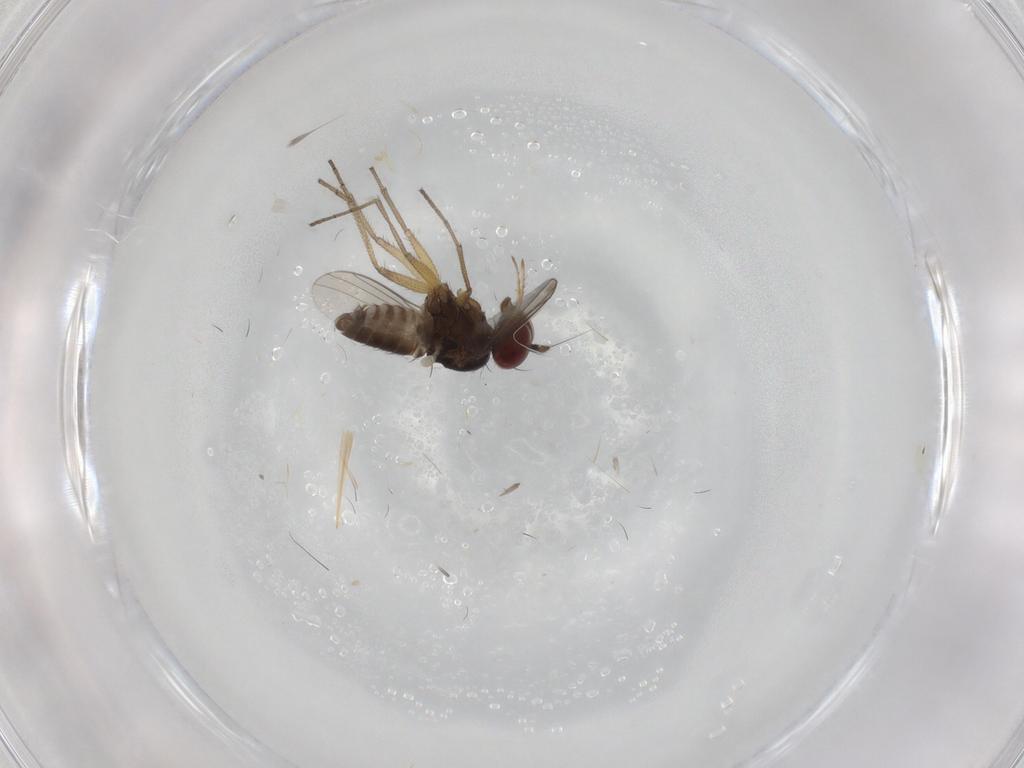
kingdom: Animalia
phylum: Arthropoda
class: Insecta
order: Diptera
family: Dolichopodidae
